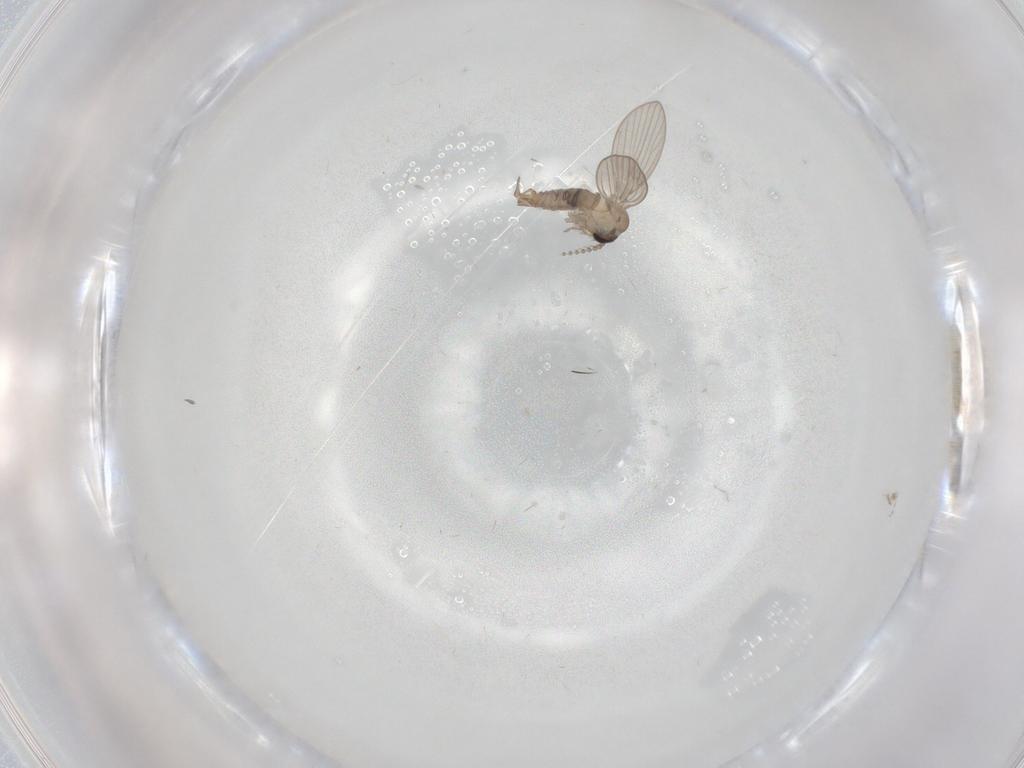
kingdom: Animalia
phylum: Arthropoda
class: Insecta
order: Diptera
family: Psychodidae
